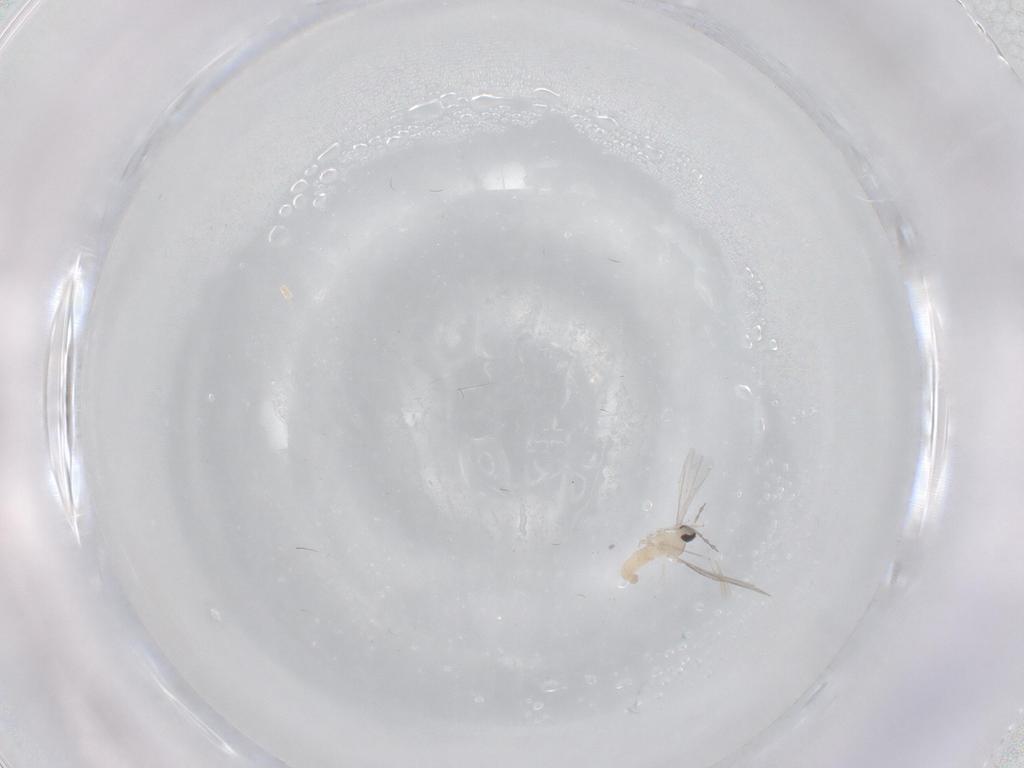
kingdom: Animalia
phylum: Arthropoda
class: Insecta
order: Diptera
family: Cecidomyiidae
